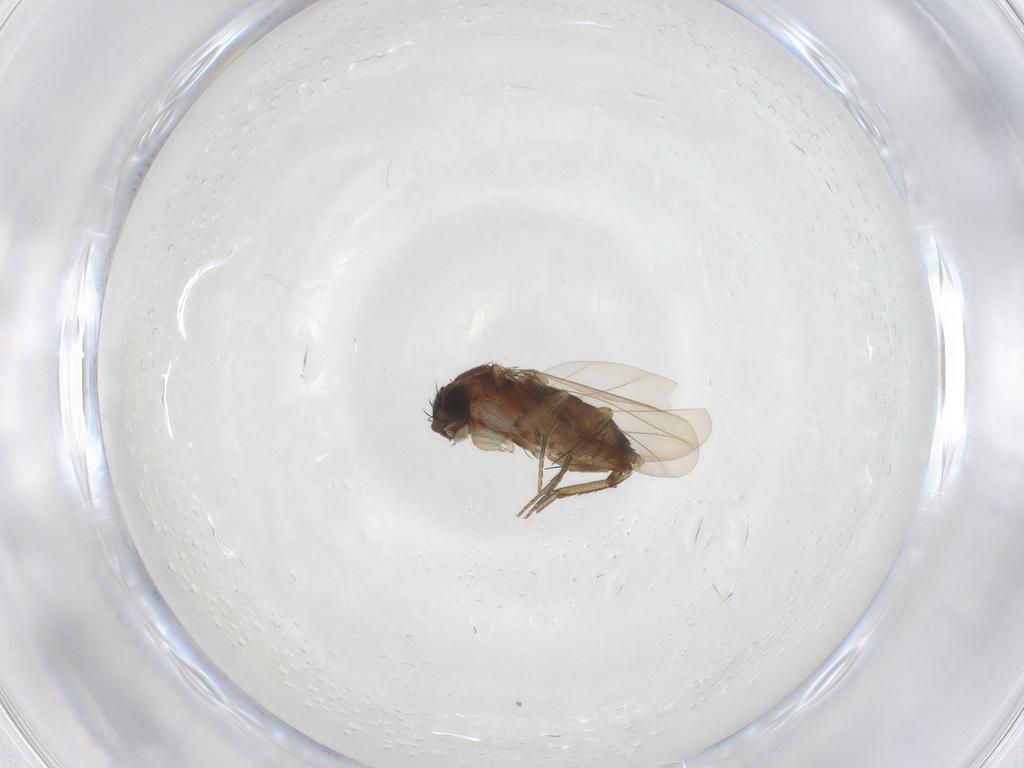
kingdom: Animalia
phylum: Arthropoda
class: Insecta
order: Diptera
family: Phoridae
